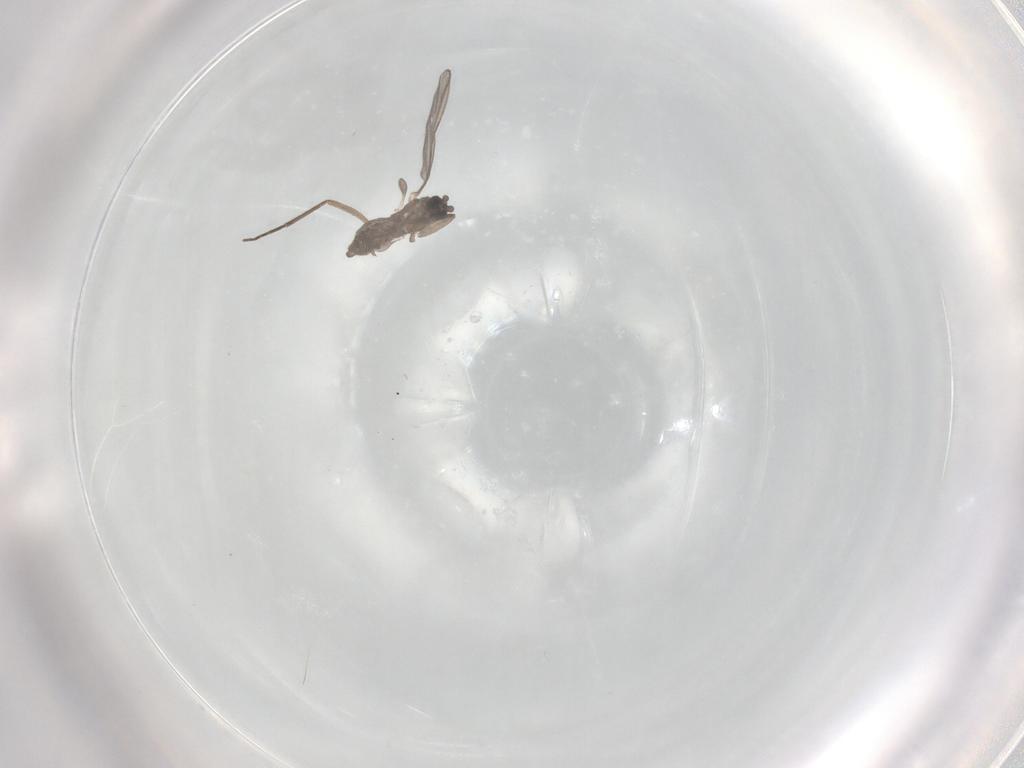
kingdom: Animalia
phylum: Arthropoda
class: Insecta
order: Diptera
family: Sciaridae
